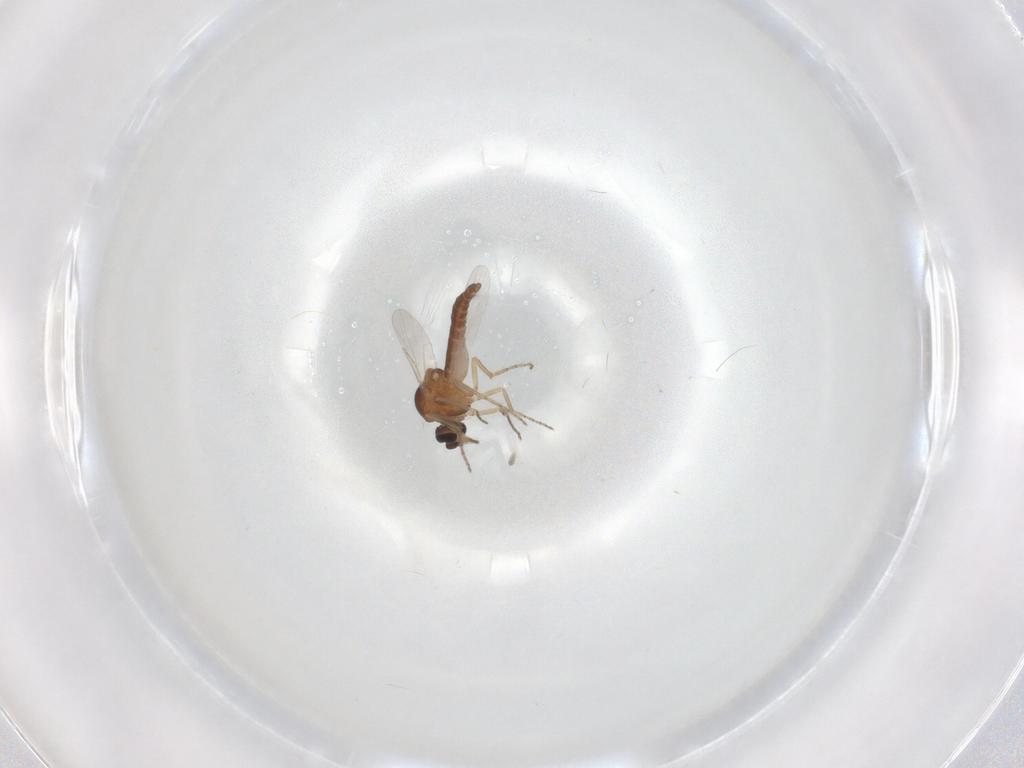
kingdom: Animalia
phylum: Arthropoda
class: Insecta
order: Diptera
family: Ceratopogonidae
